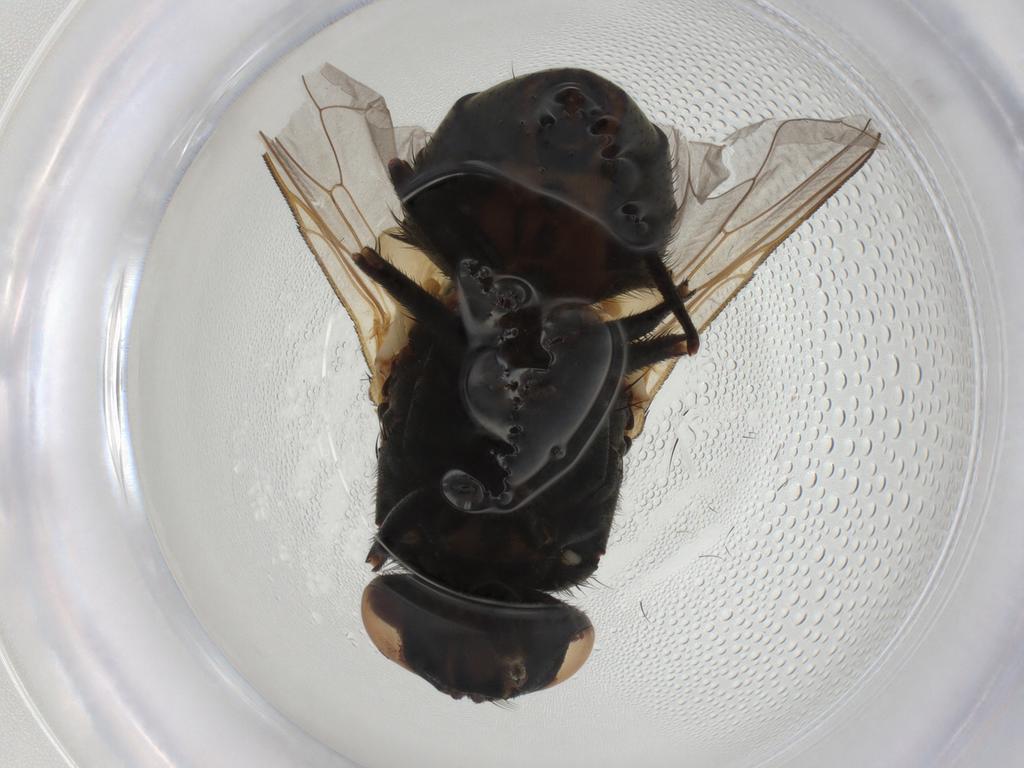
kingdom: Animalia
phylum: Arthropoda
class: Insecta
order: Diptera
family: Pipunculidae
